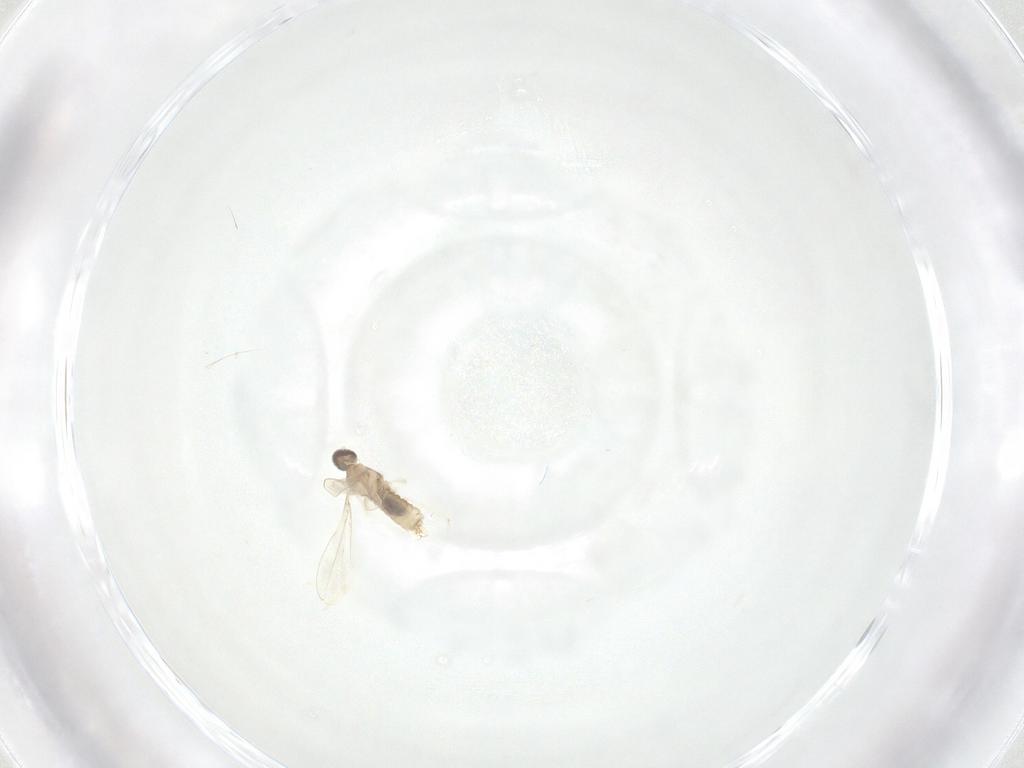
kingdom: Animalia
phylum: Arthropoda
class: Insecta
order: Diptera
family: Cecidomyiidae
